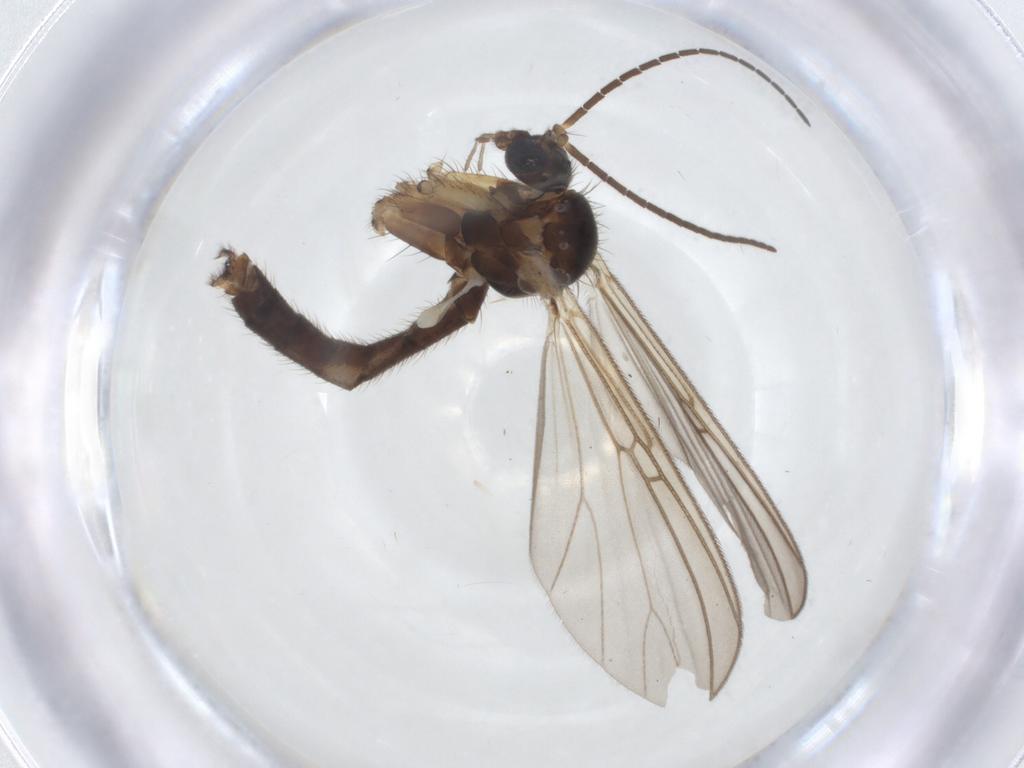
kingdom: Animalia
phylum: Arthropoda
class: Insecta
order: Diptera
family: Mycetophilidae
